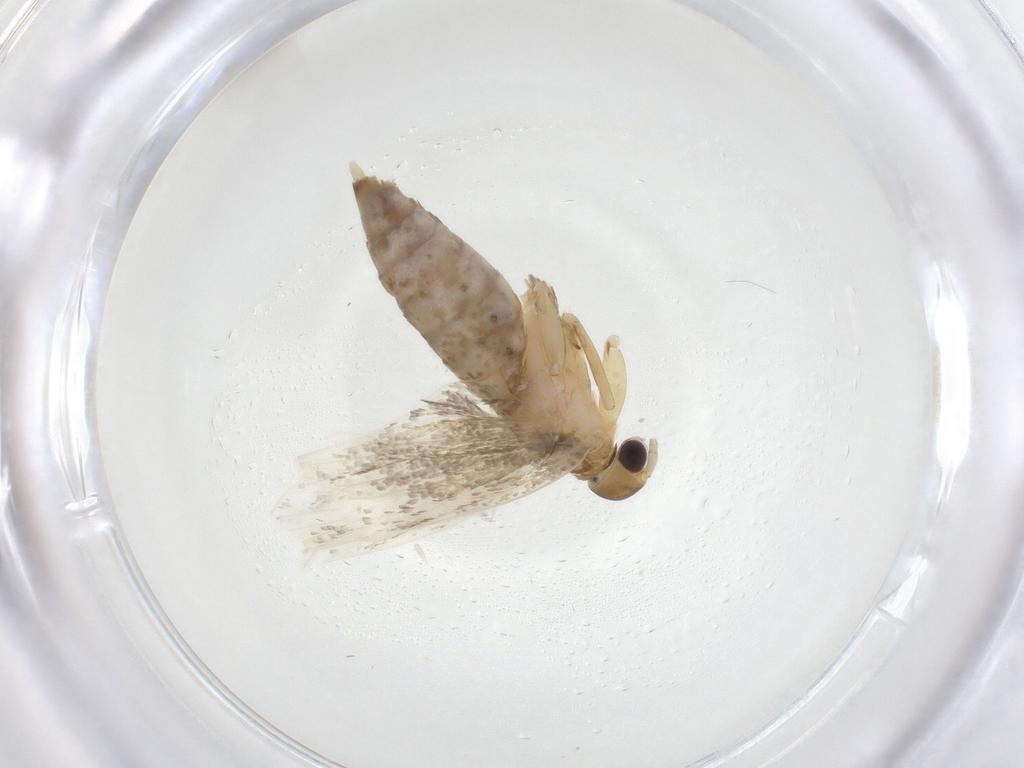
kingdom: Animalia
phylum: Arthropoda
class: Insecta
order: Lepidoptera
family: Lecithoceridae
